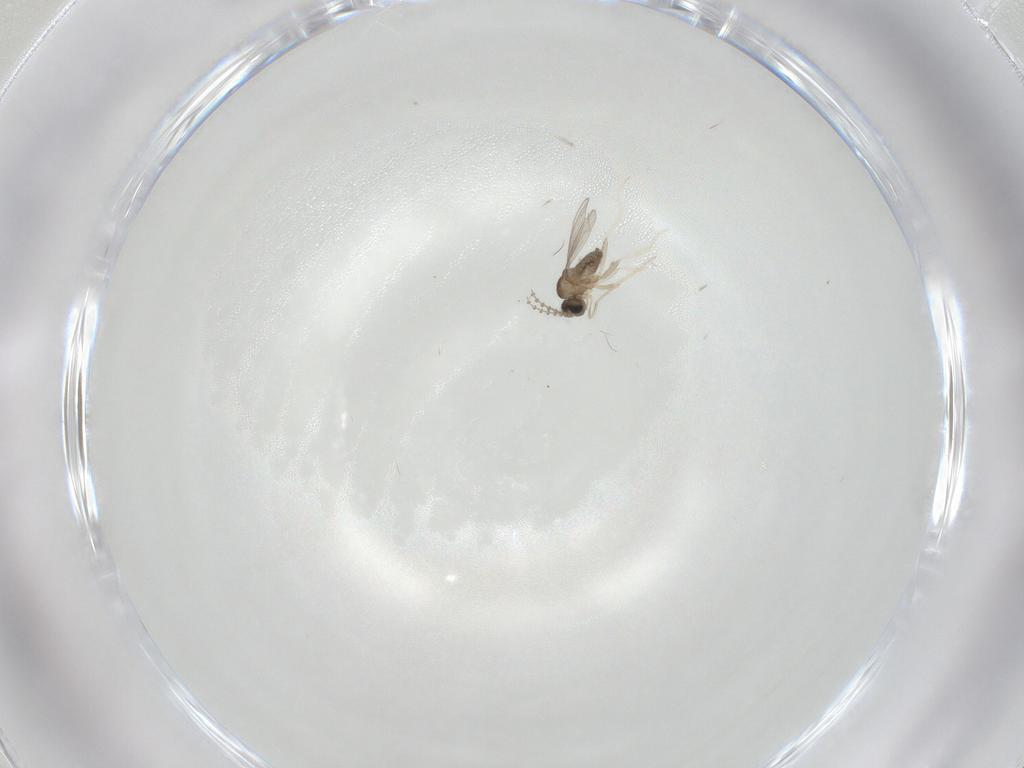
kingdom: Animalia
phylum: Arthropoda
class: Insecta
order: Diptera
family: Cecidomyiidae
